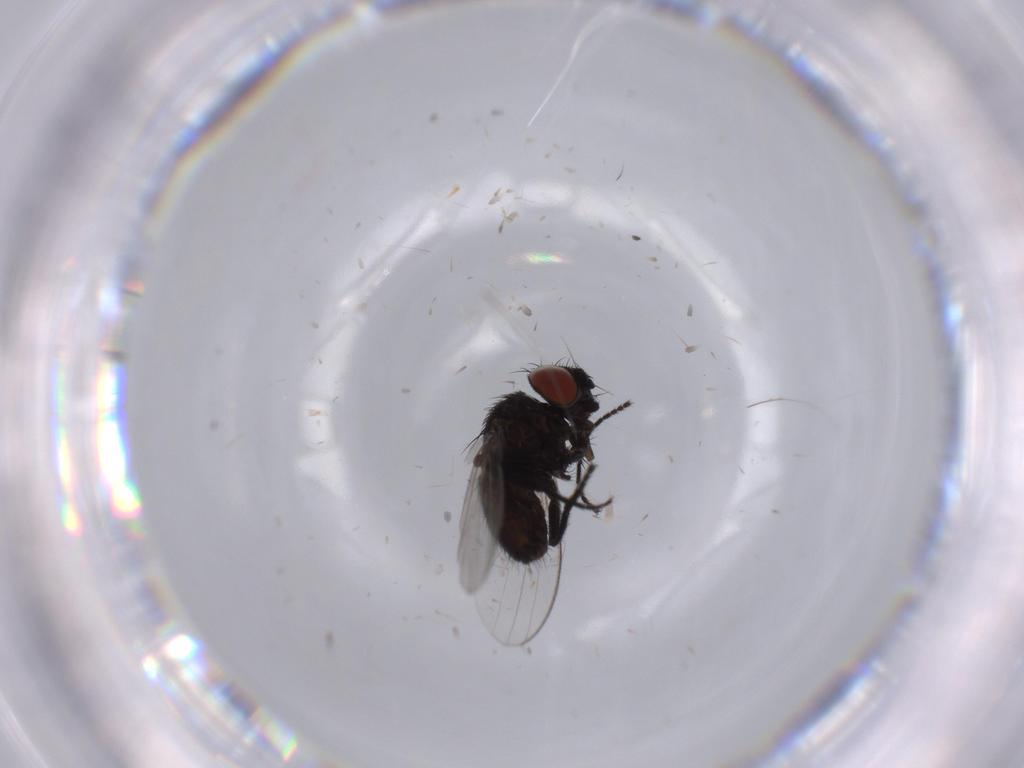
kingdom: Animalia
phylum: Arthropoda
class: Insecta
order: Diptera
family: Milichiidae
